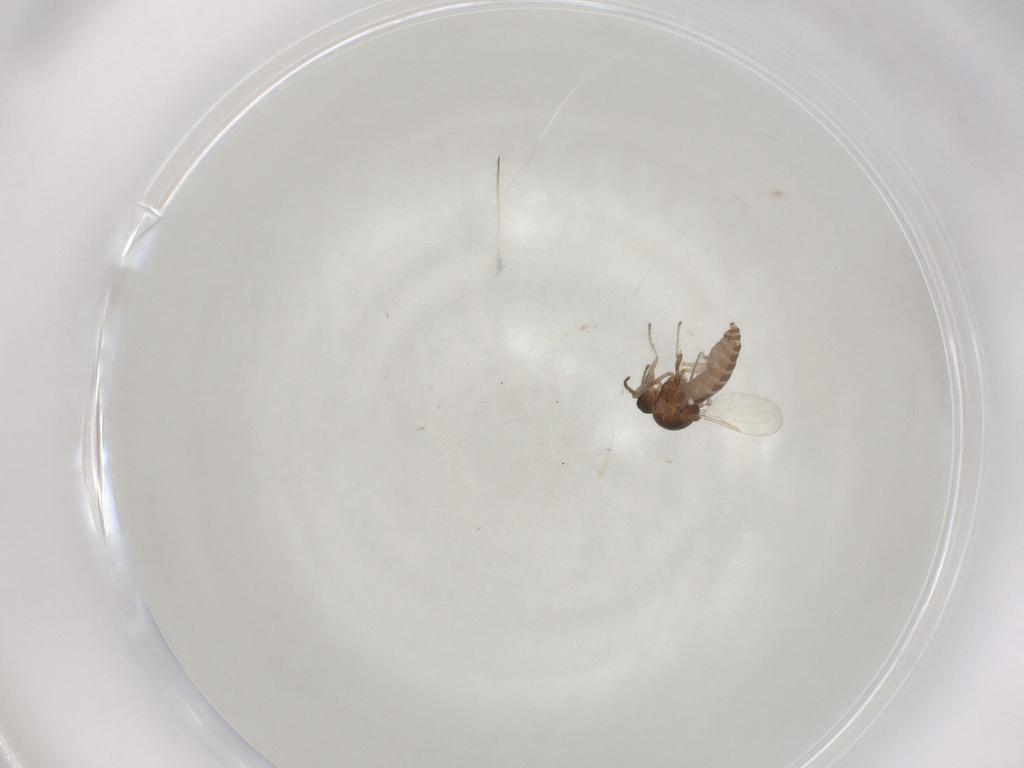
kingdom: Animalia
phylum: Arthropoda
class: Insecta
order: Diptera
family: Ceratopogonidae
